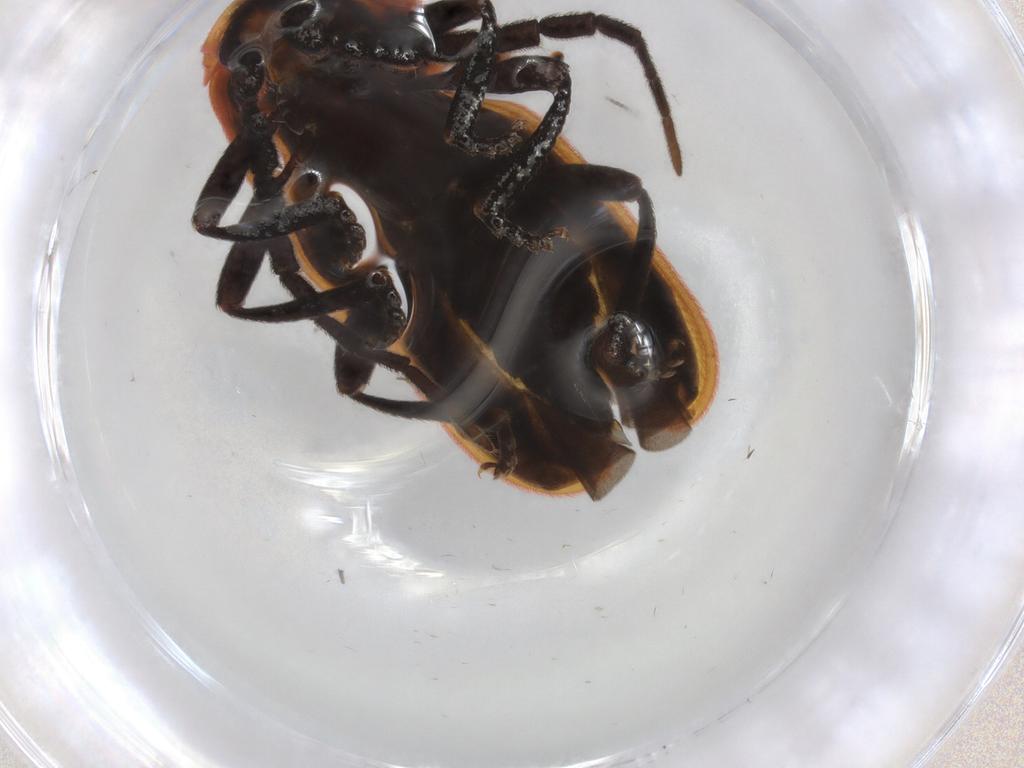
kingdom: Animalia
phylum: Arthropoda
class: Insecta
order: Coleoptera
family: Lycidae
